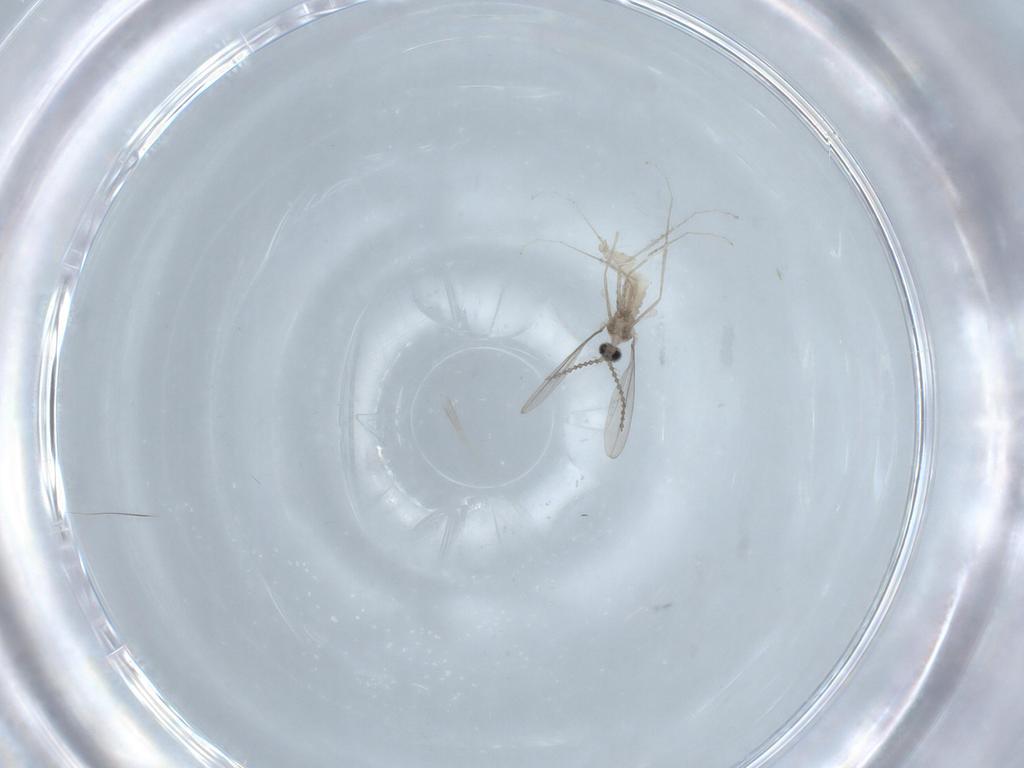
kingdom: Animalia
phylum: Arthropoda
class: Insecta
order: Diptera
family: Cecidomyiidae
